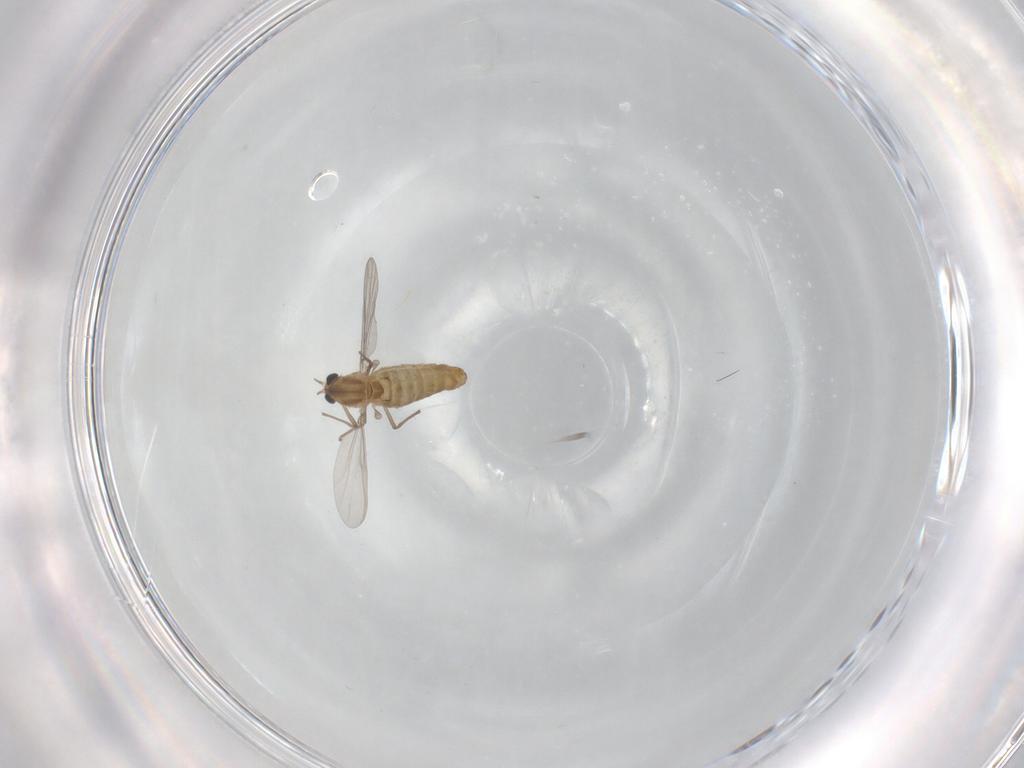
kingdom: Animalia
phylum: Arthropoda
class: Insecta
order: Diptera
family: Chironomidae
